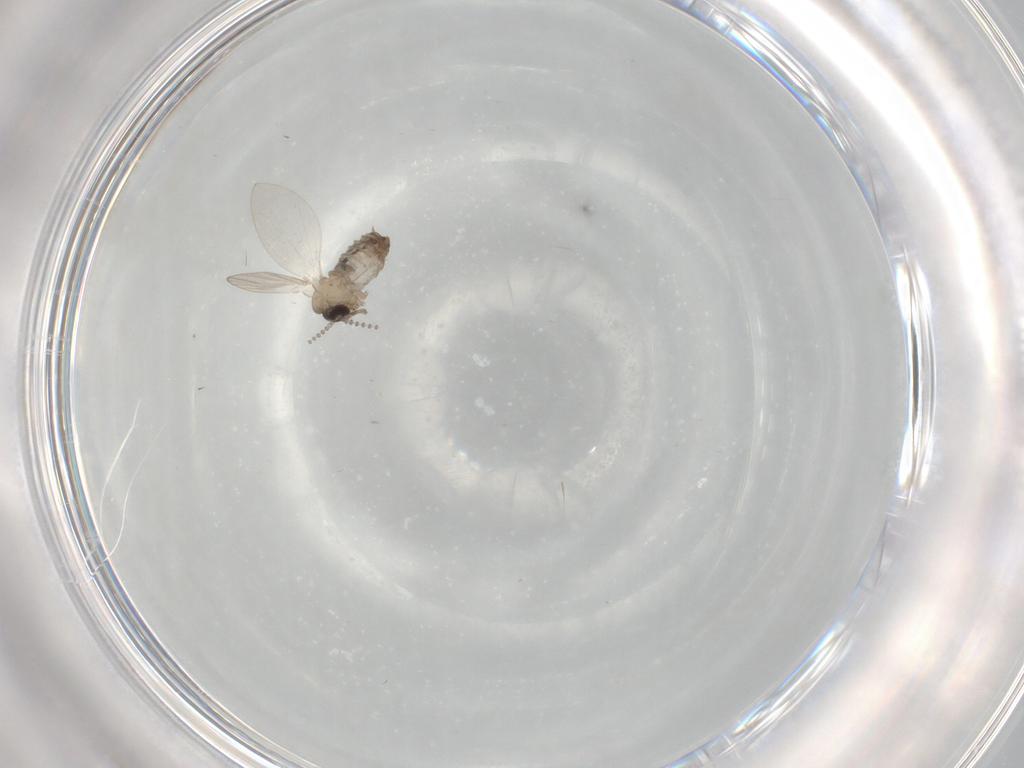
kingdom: Animalia
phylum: Arthropoda
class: Insecta
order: Diptera
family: Psychodidae
